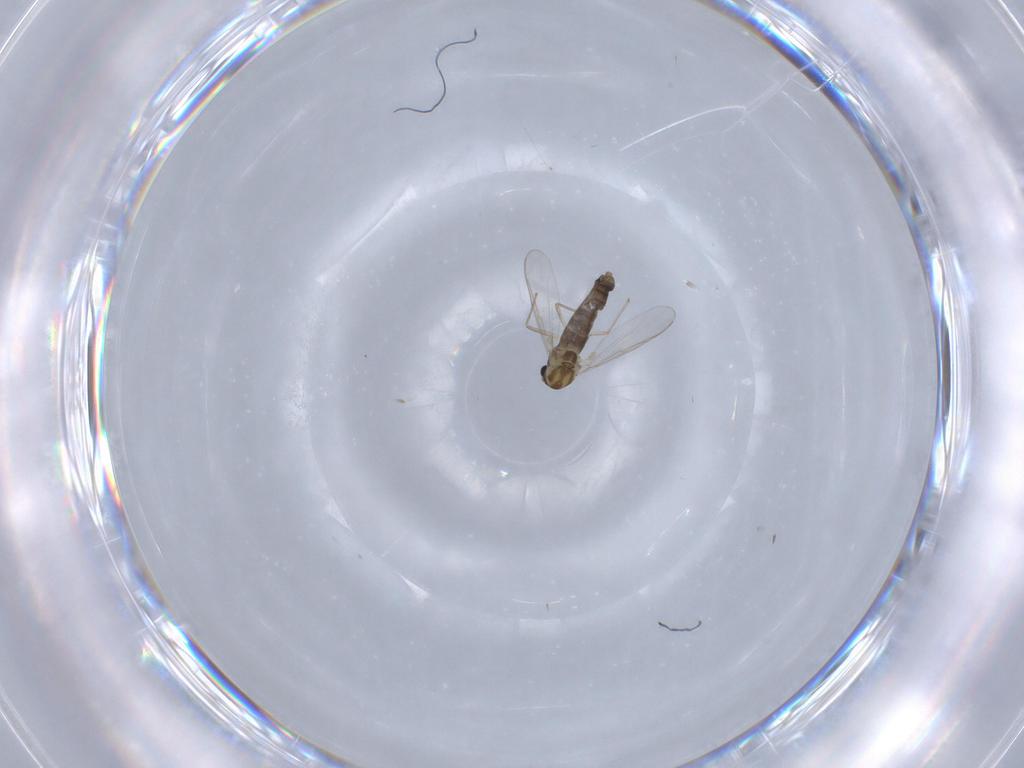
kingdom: Animalia
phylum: Arthropoda
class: Insecta
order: Diptera
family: Chironomidae
